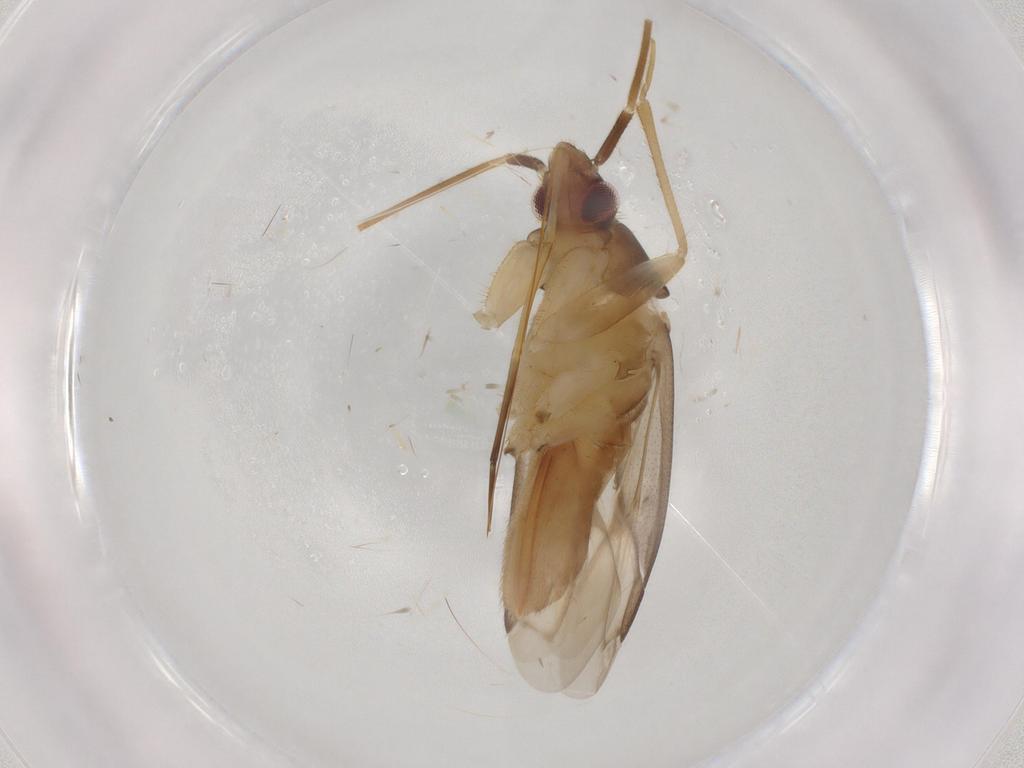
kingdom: Animalia
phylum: Arthropoda
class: Insecta
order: Hemiptera
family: Miridae
